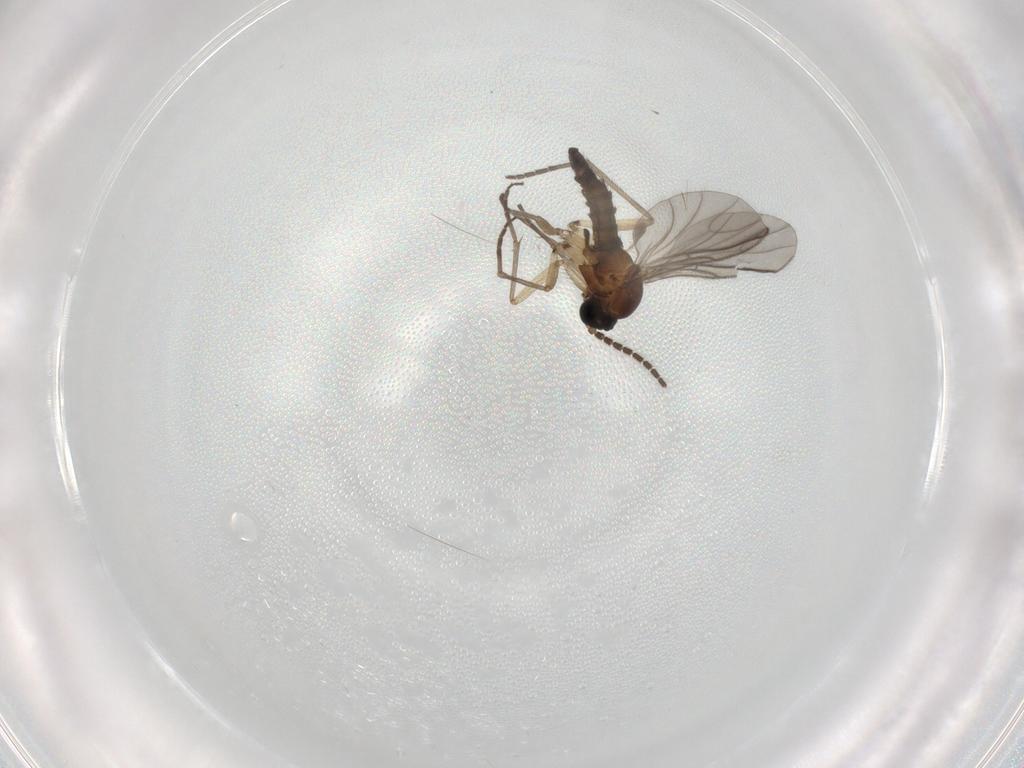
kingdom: Animalia
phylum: Arthropoda
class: Insecta
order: Diptera
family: Sciaridae
